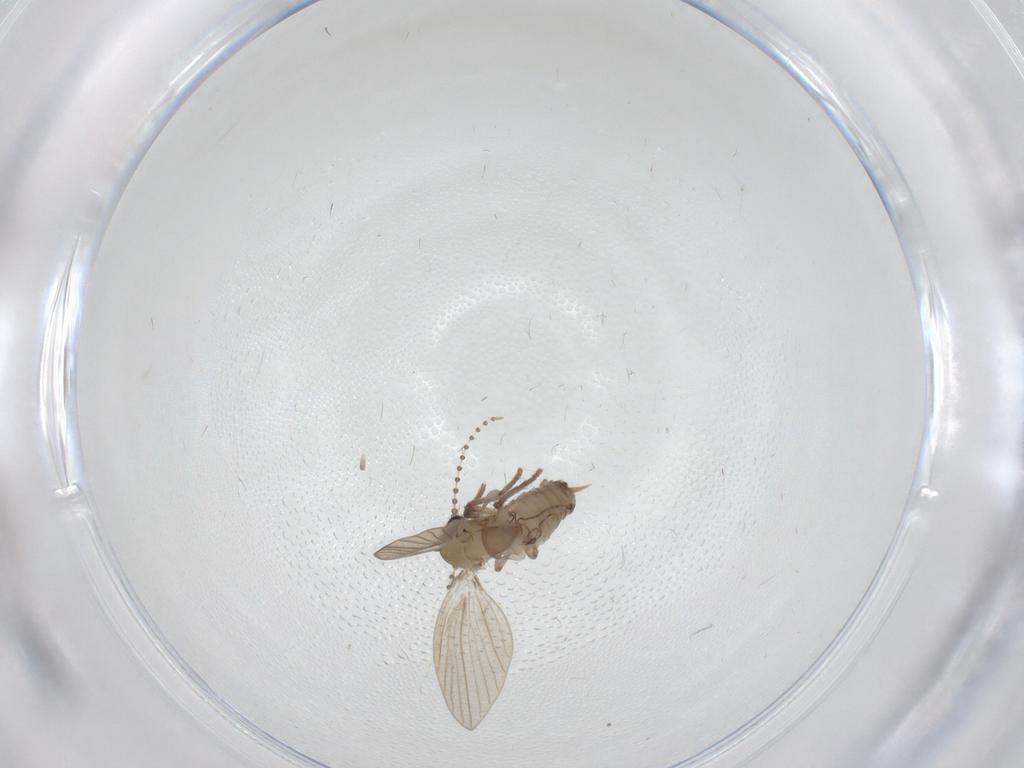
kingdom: Animalia
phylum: Arthropoda
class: Insecta
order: Diptera
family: Psychodidae
